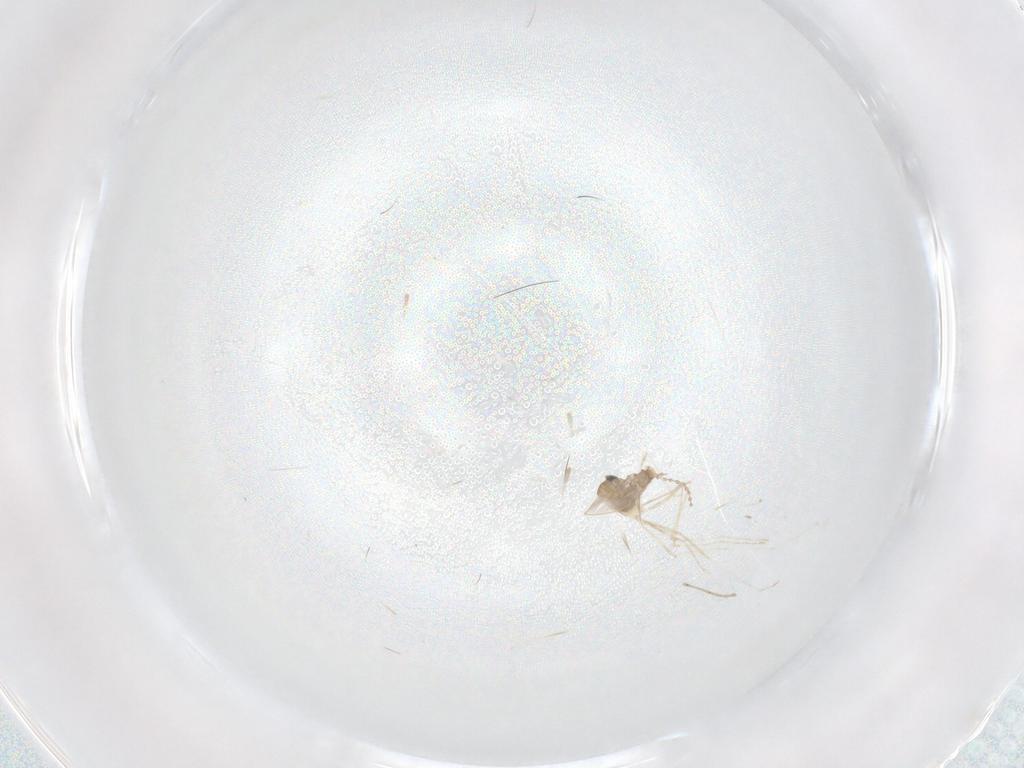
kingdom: Animalia
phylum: Arthropoda
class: Insecta
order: Diptera
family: Cecidomyiidae
